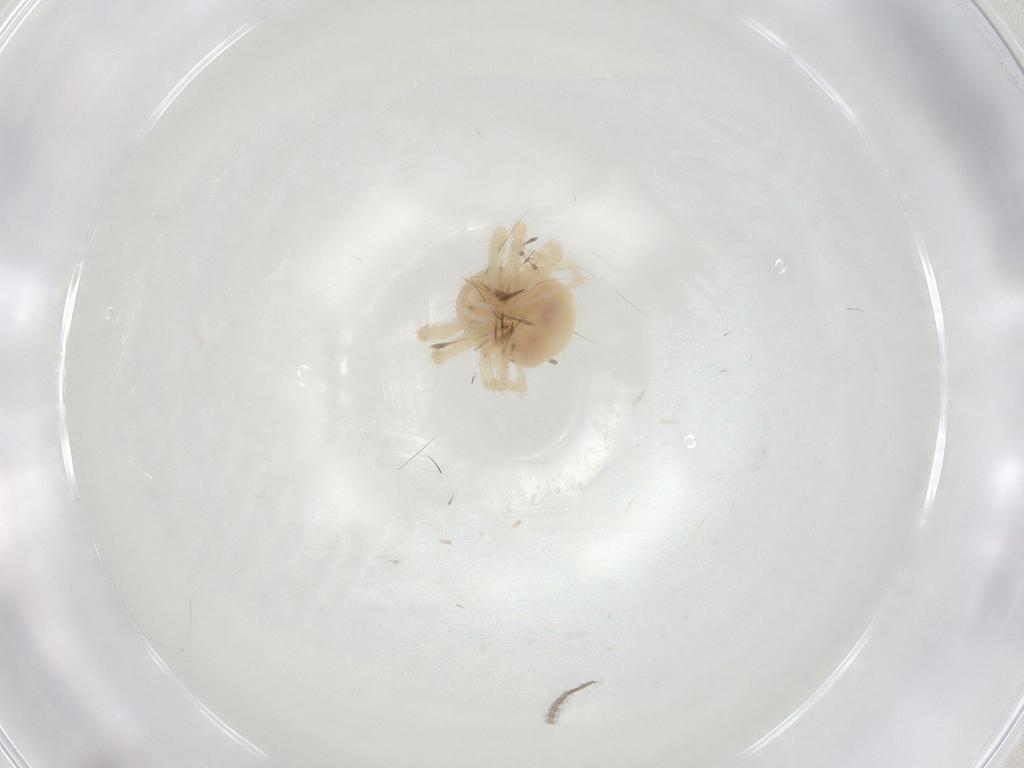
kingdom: Animalia
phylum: Arthropoda
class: Arachnida
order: Trombidiformes
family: Anystidae
